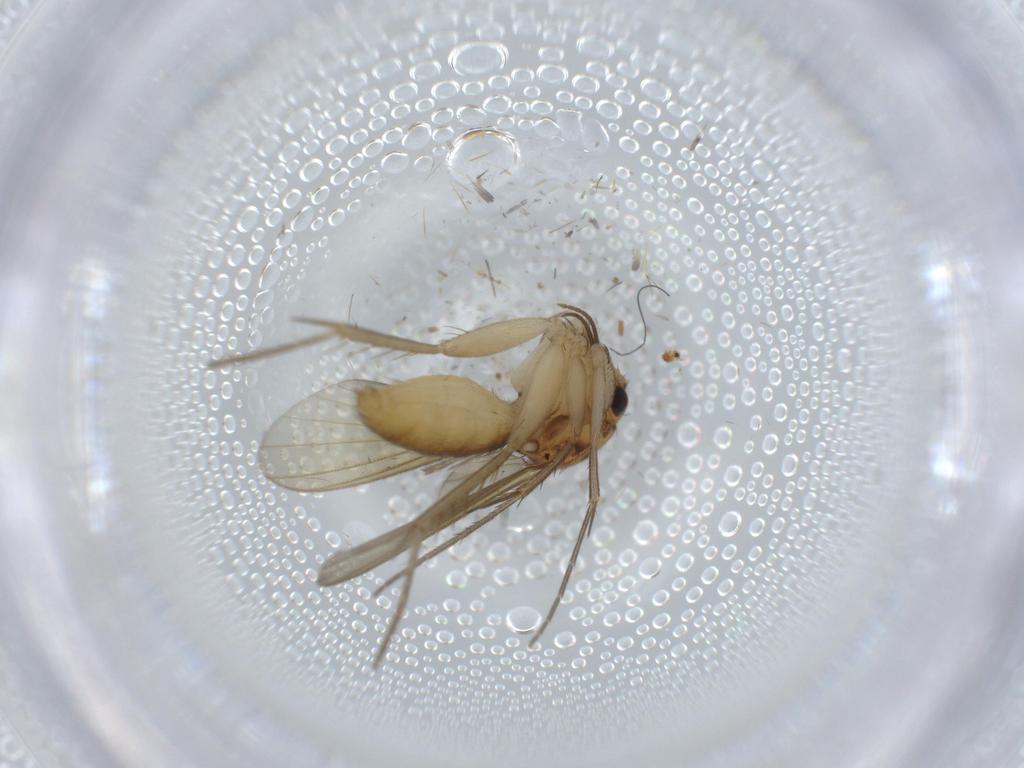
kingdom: Animalia
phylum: Arthropoda
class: Insecta
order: Diptera
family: Mycetophilidae
